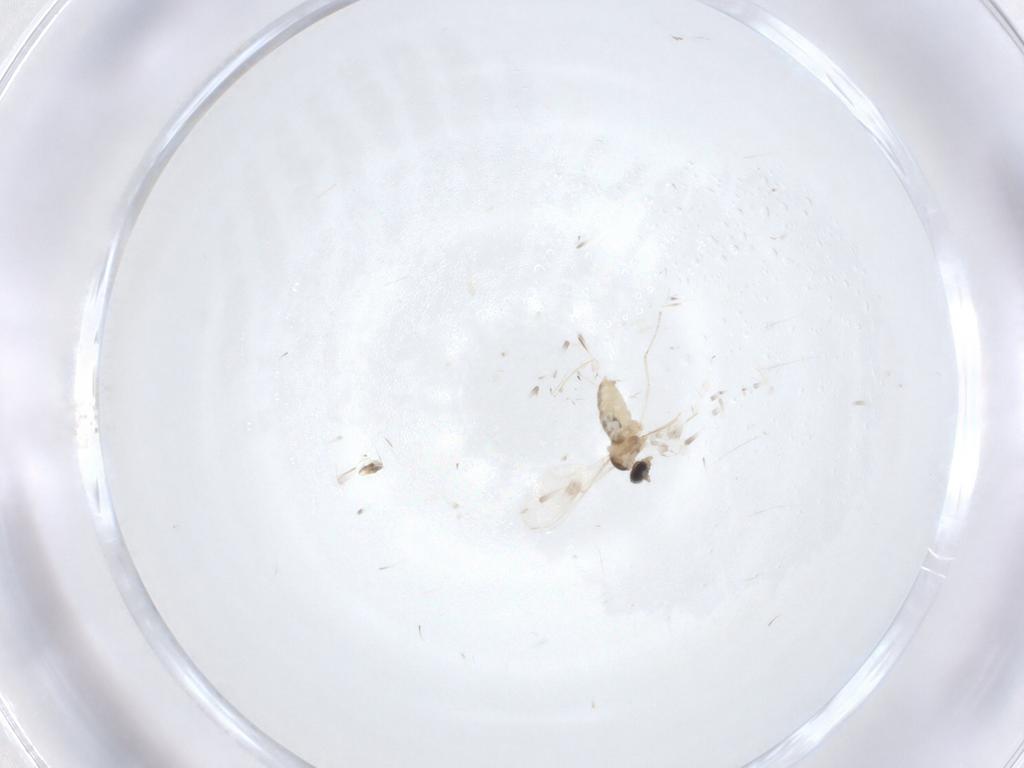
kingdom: Animalia
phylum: Arthropoda
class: Insecta
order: Diptera
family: Cecidomyiidae
